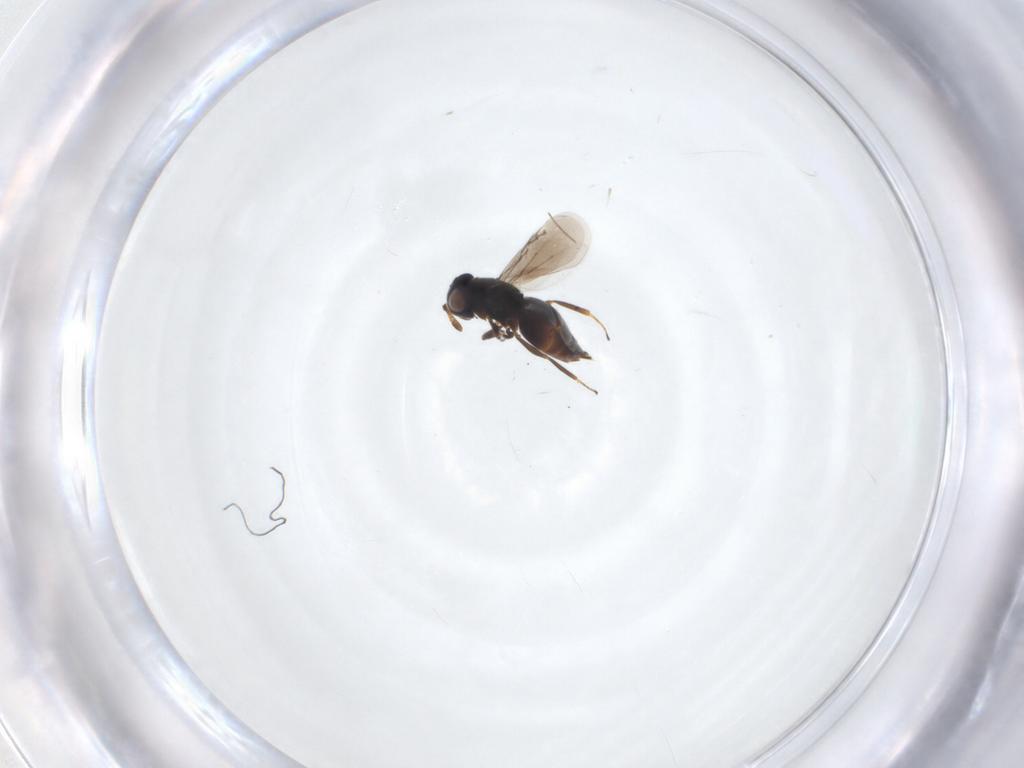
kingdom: Animalia
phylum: Arthropoda
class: Insecta
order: Hymenoptera
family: Eunotidae
